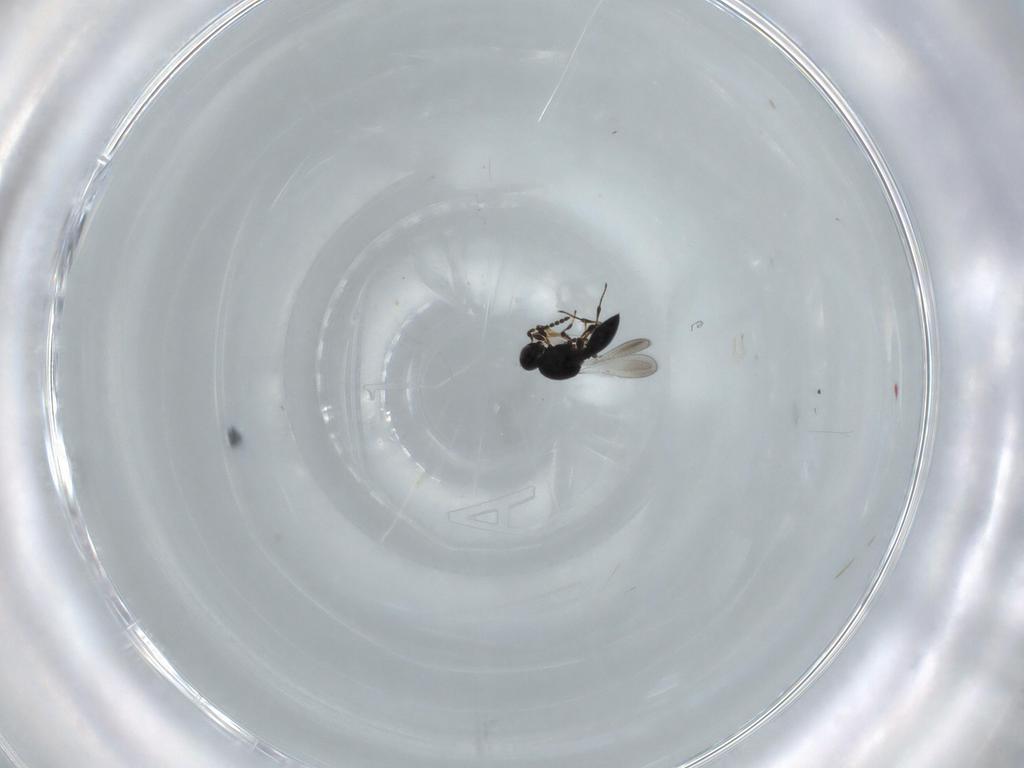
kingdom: Animalia
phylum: Arthropoda
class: Insecta
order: Hymenoptera
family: Platygastridae
